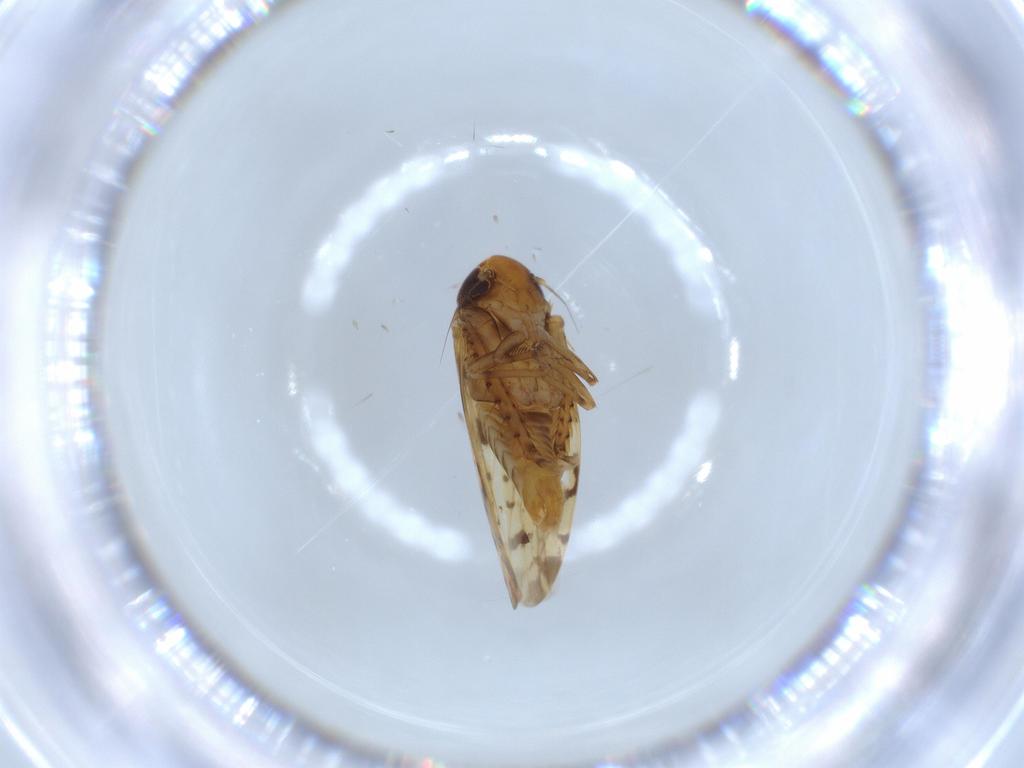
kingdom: Animalia
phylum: Arthropoda
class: Insecta
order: Hemiptera
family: Cicadellidae
